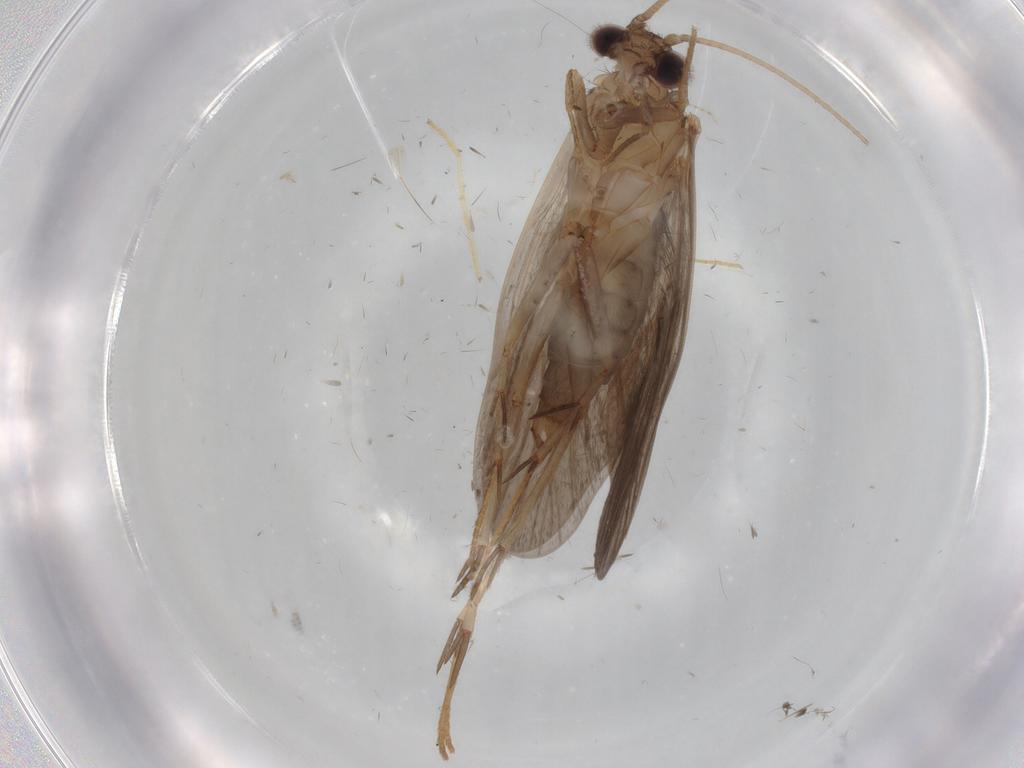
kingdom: Animalia
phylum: Arthropoda
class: Insecta
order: Trichoptera
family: Philopotamidae
